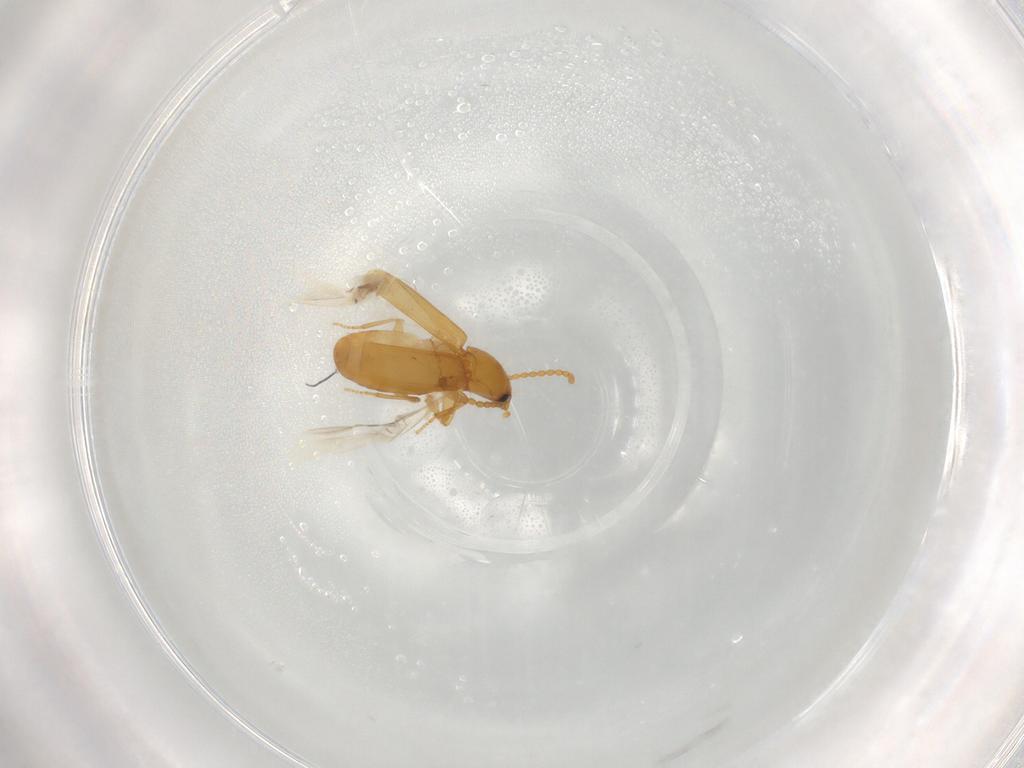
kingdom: Animalia
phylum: Arthropoda
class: Insecta
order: Coleoptera
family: Carabidae
